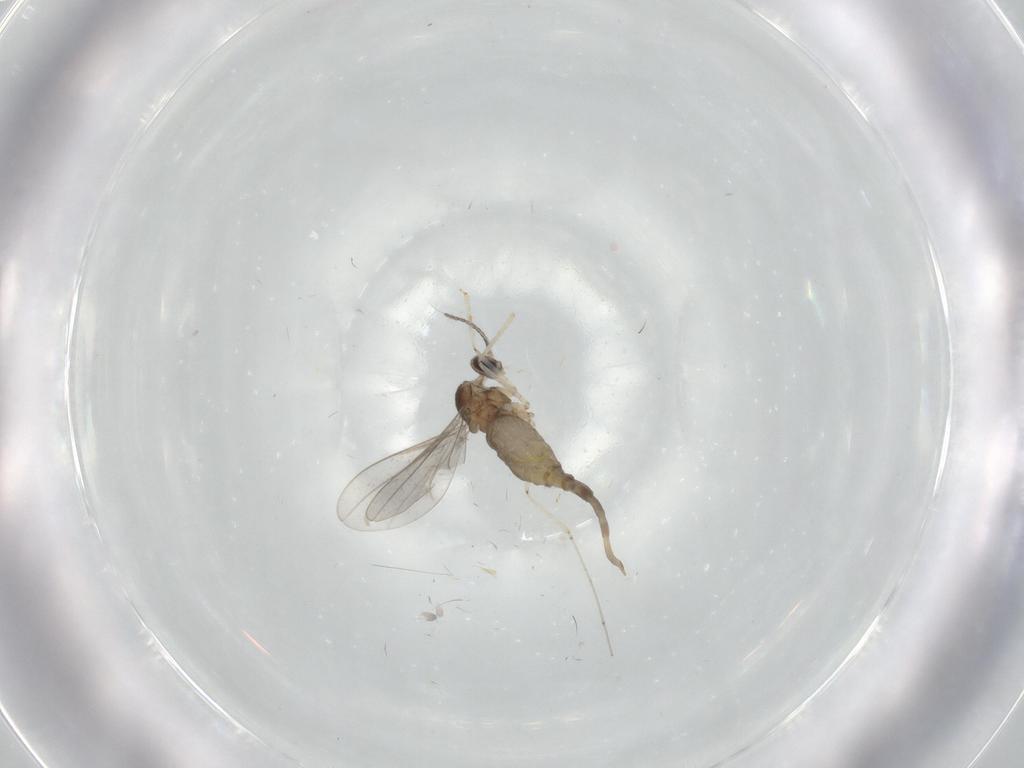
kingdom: Animalia
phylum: Arthropoda
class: Insecta
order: Diptera
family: Cecidomyiidae
